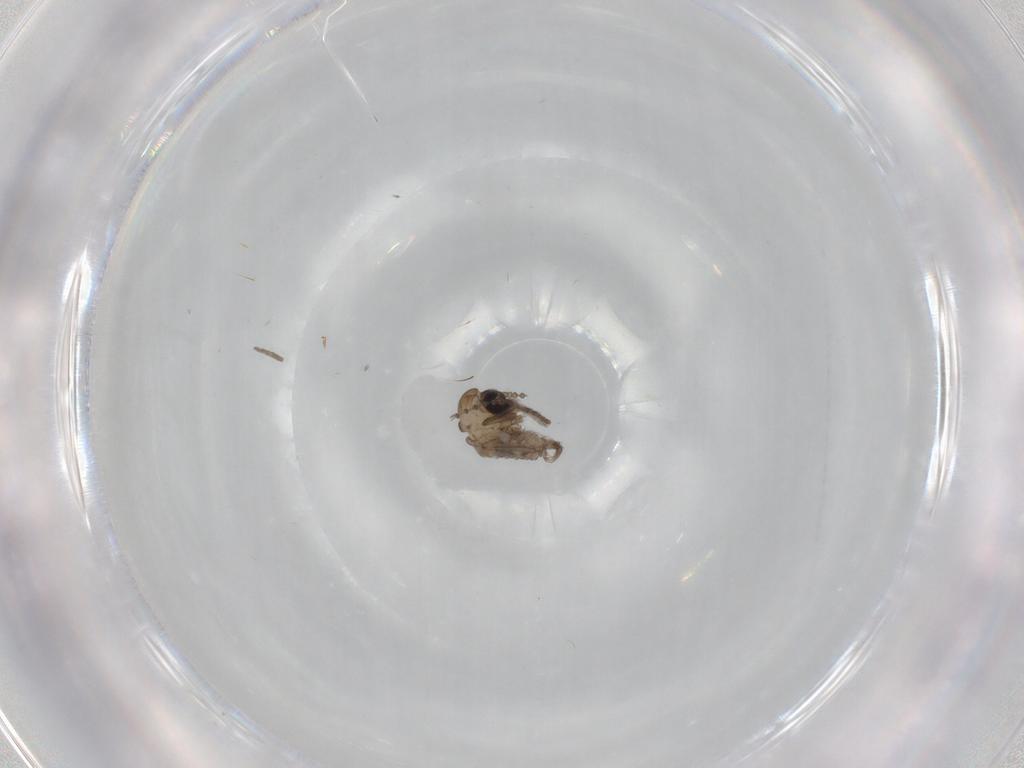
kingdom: Animalia
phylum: Arthropoda
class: Insecta
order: Diptera
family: Psychodidae
